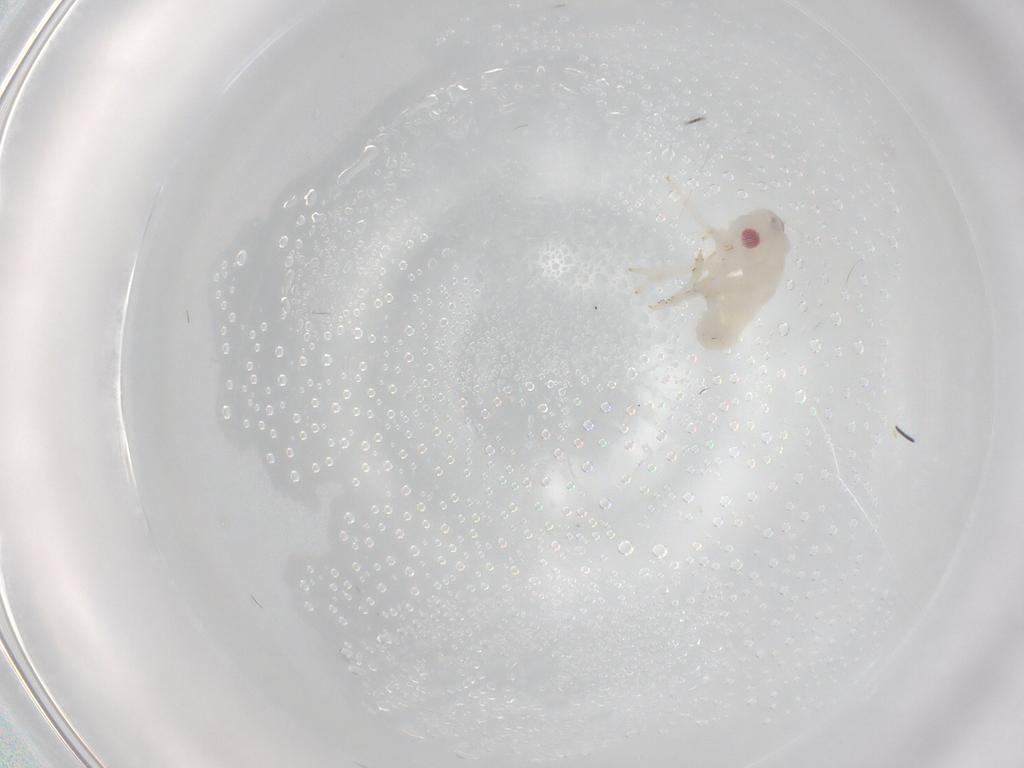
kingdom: Animalia
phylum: Arthropoda
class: Insecta
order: Hemiptera
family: Flatidae
